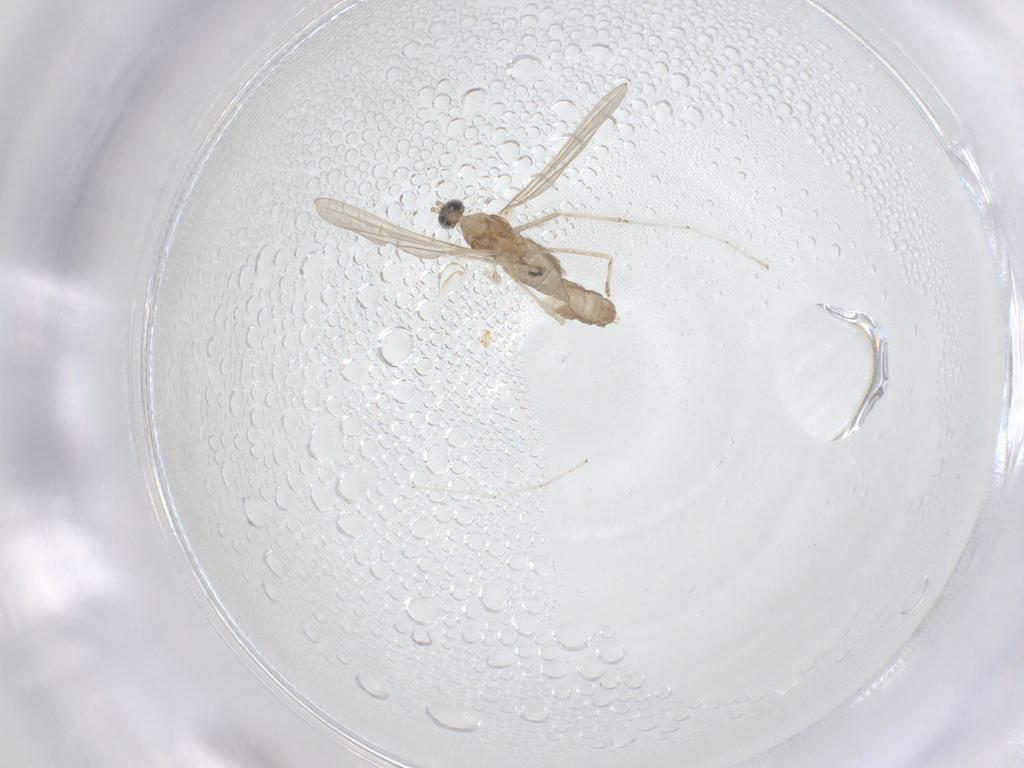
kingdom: Animalia
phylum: Arthropoda
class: Insecta
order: Diptera
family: Cecidomyiidae
